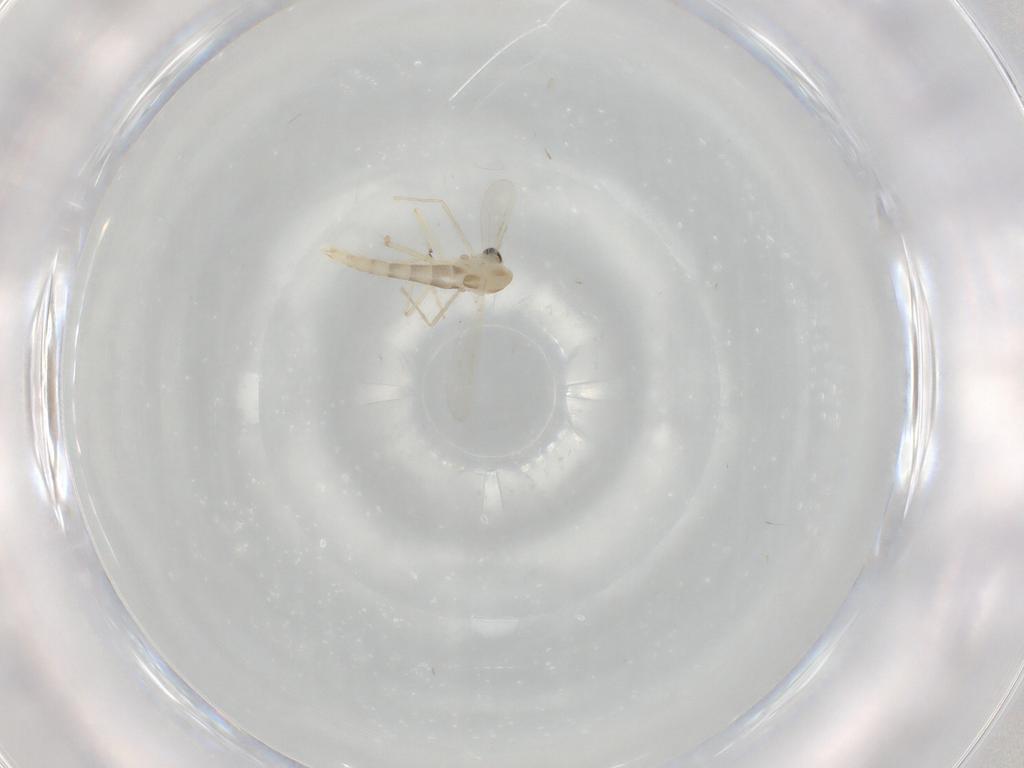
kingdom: Animalia
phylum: Arthropoda
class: Insecta
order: Diptera
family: Chironomidae
